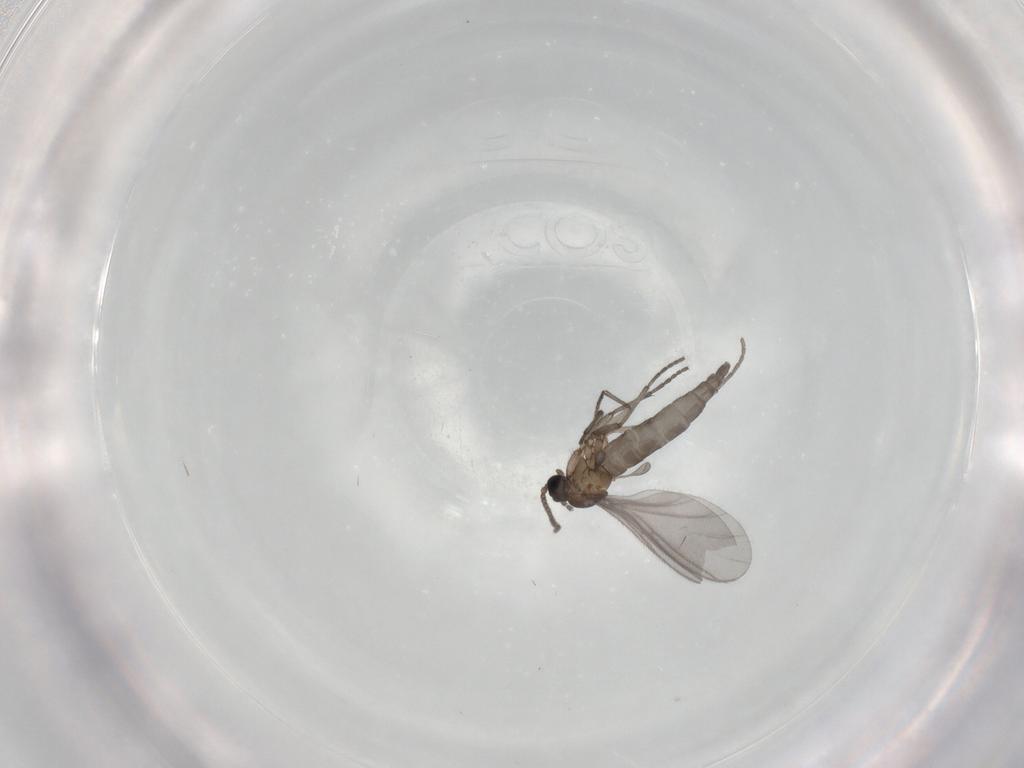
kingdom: Animalia
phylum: Arthropoda
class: Insecta
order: Diptera
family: Sciaridae
